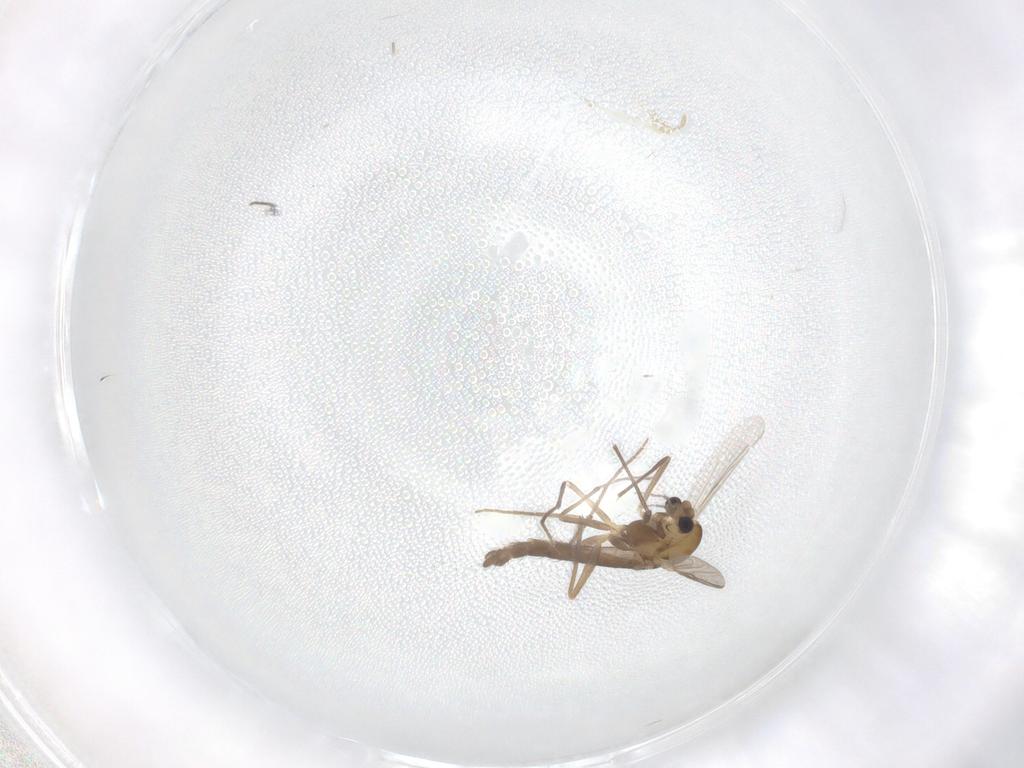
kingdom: Animalia
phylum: Arthropoda
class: Insecta
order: Diptera
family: Chironomidae
